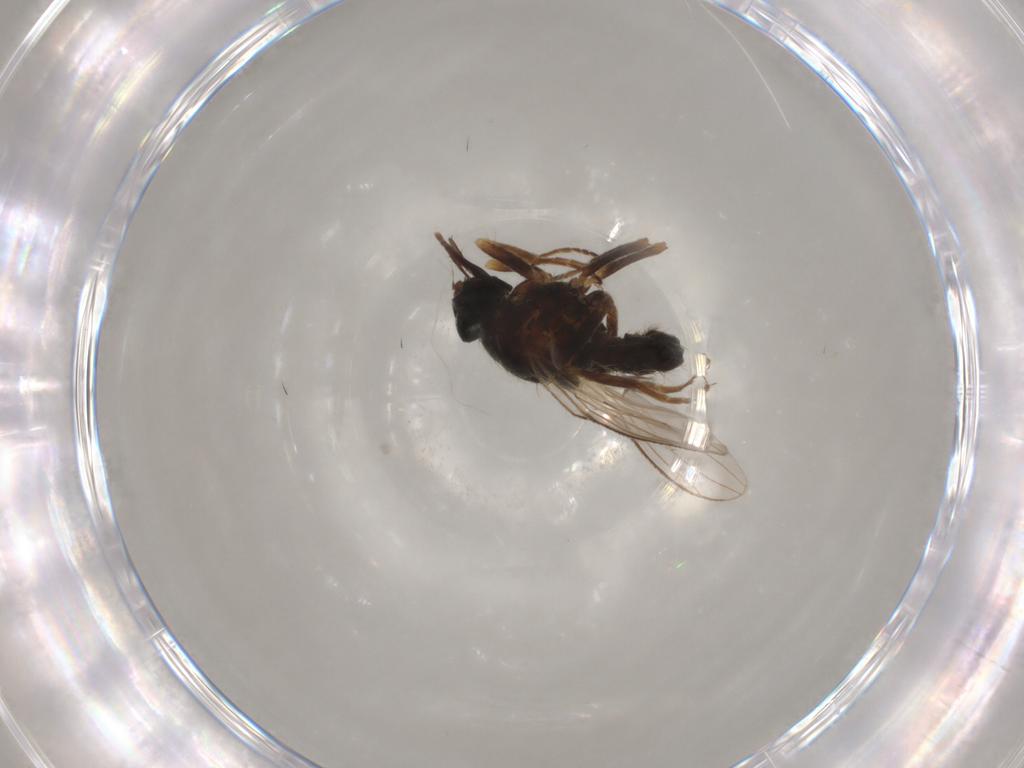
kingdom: Animalia
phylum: Arthropoda
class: Insecta
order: Diptera
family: Muscidae
